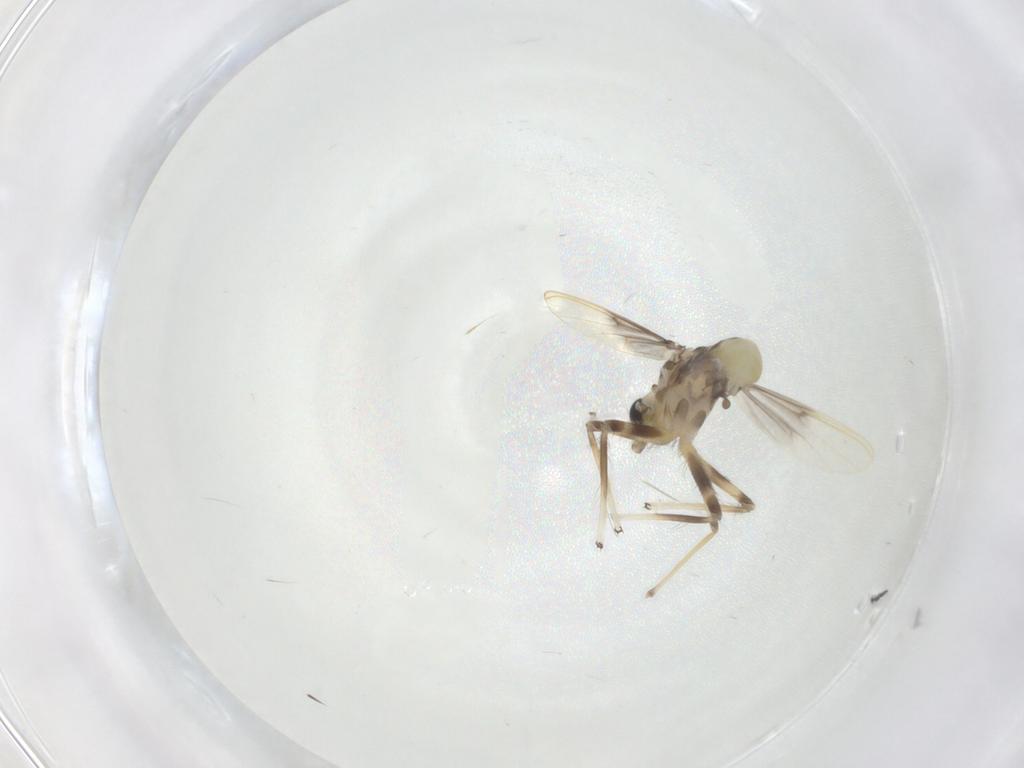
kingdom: Animalia
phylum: Arthropoda
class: Insecta
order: Diptera
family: Chironomidae
